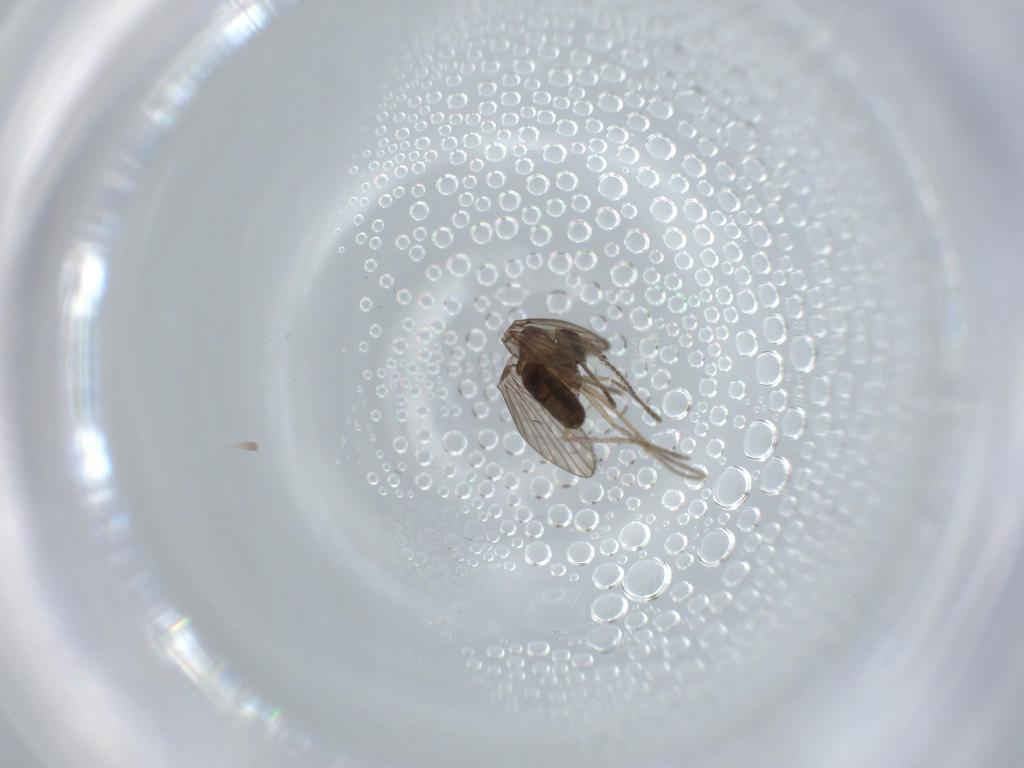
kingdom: Animalia
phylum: Arthropoda
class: Insecta
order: Diptera
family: Psychodidae
